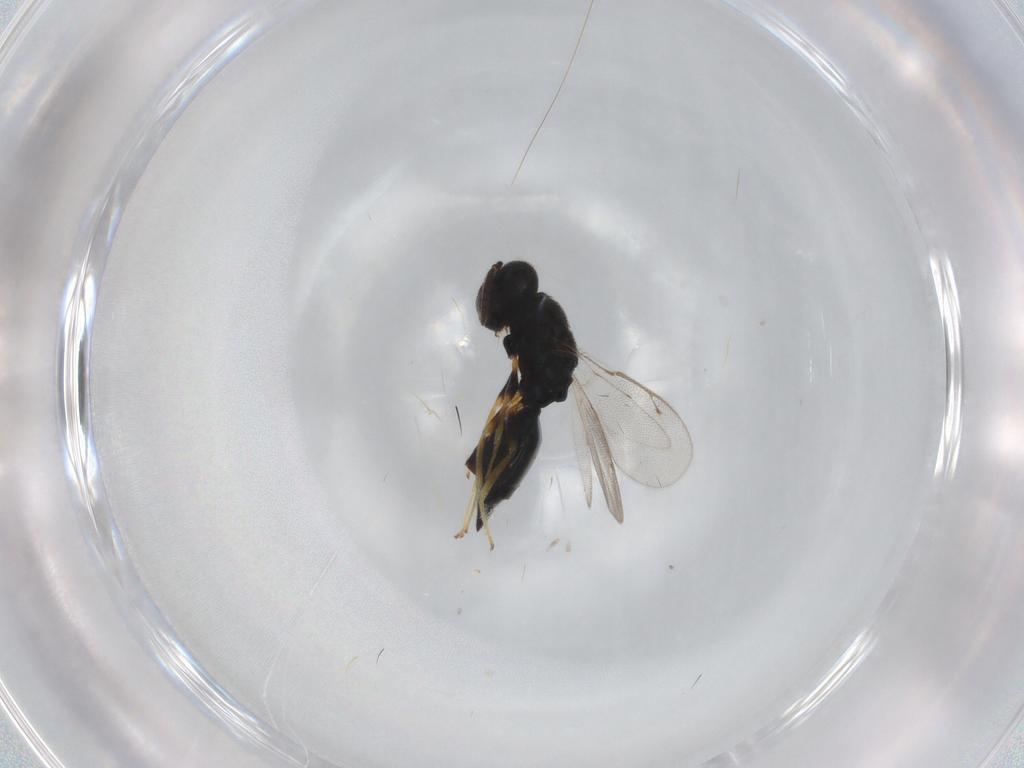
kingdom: Animalia
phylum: Arthropoda
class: Insecta
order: Hymenoptera
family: Pteromalidae
